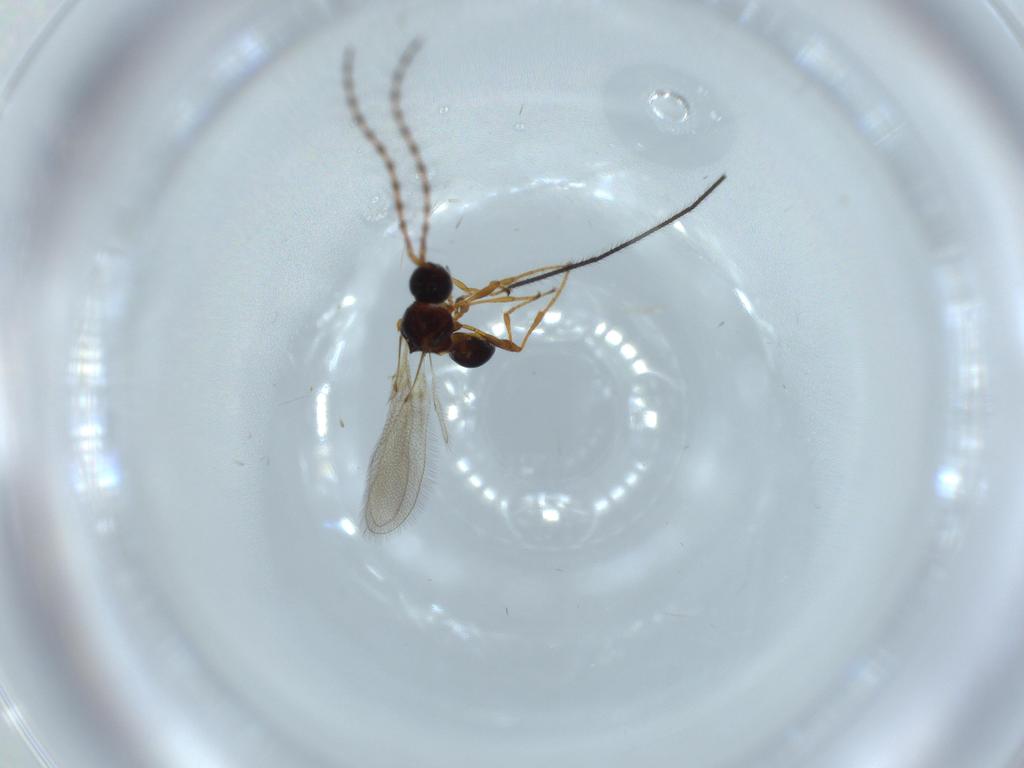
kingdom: Animalia
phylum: Arthropoda
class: Insecta
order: Hymenoptera
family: Diapriidae
